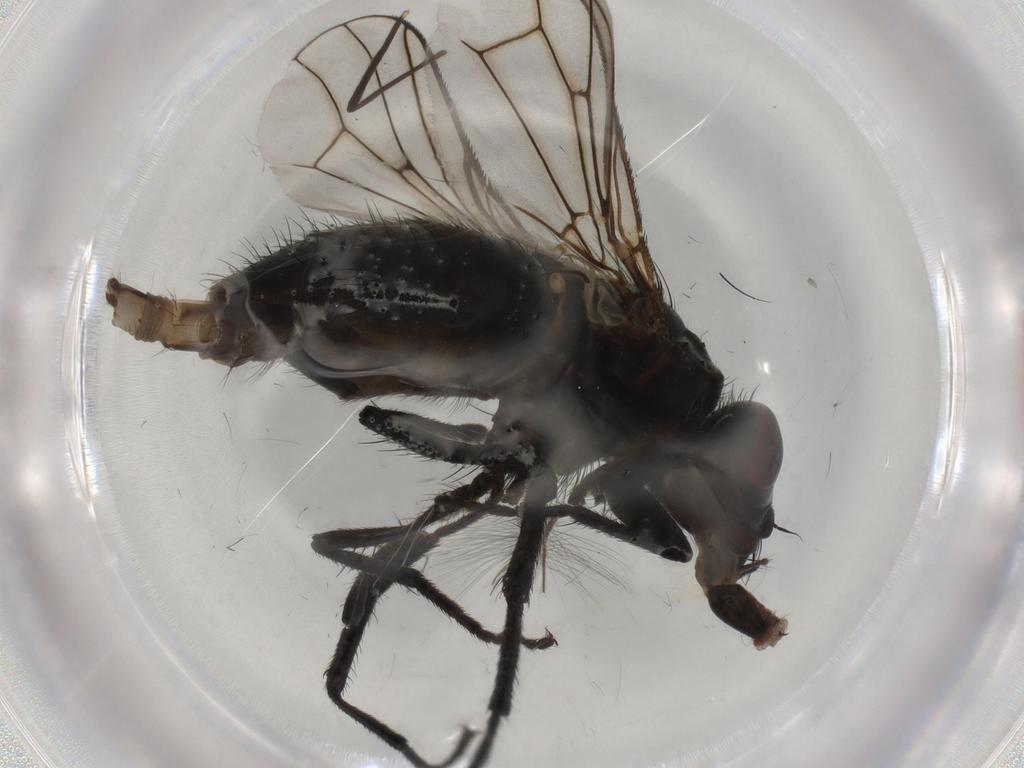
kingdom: Animalia
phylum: Arthropoda
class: Insecta
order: Diptera
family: Muscidae
